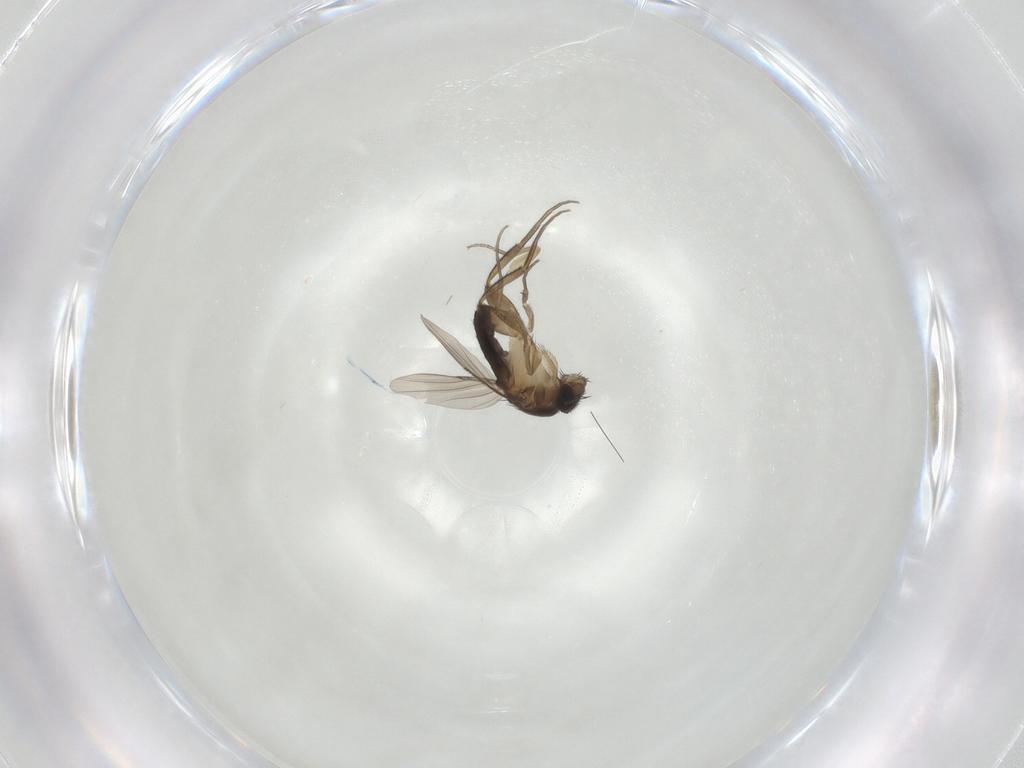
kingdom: Animalia
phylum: Arthropoda
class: Insecta
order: Diptera
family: Phoridae
